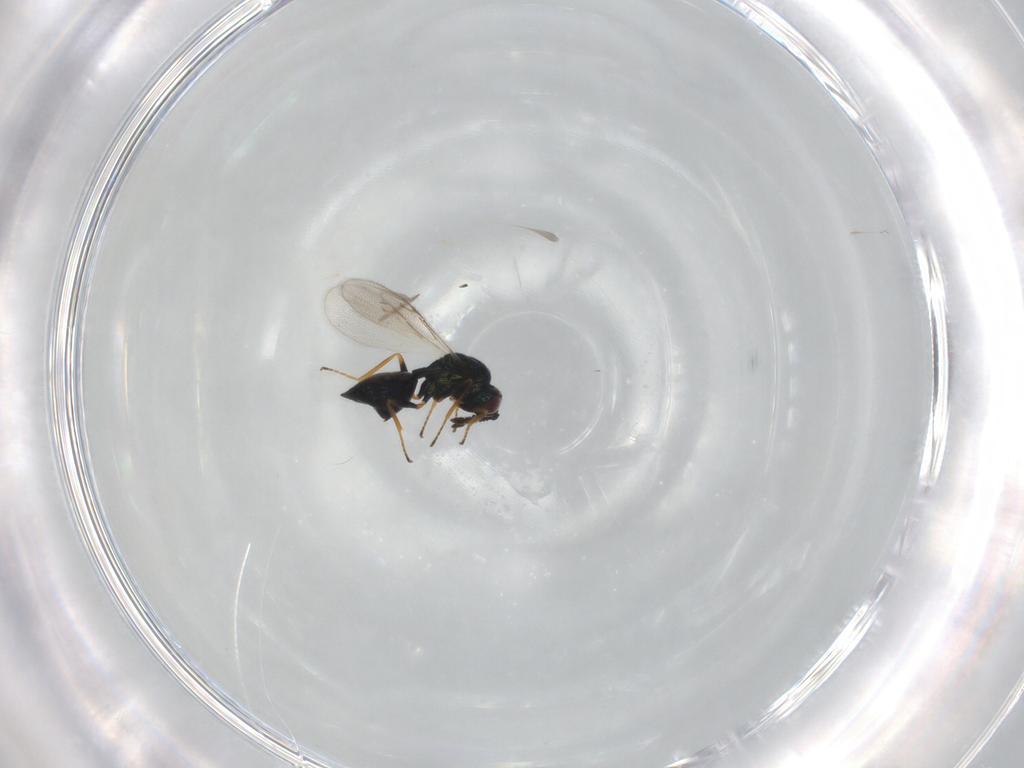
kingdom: Animalia
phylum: Arthropoda
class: Insecta
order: Hymenoptera
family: Chalcidoidea_incertae_sedis
